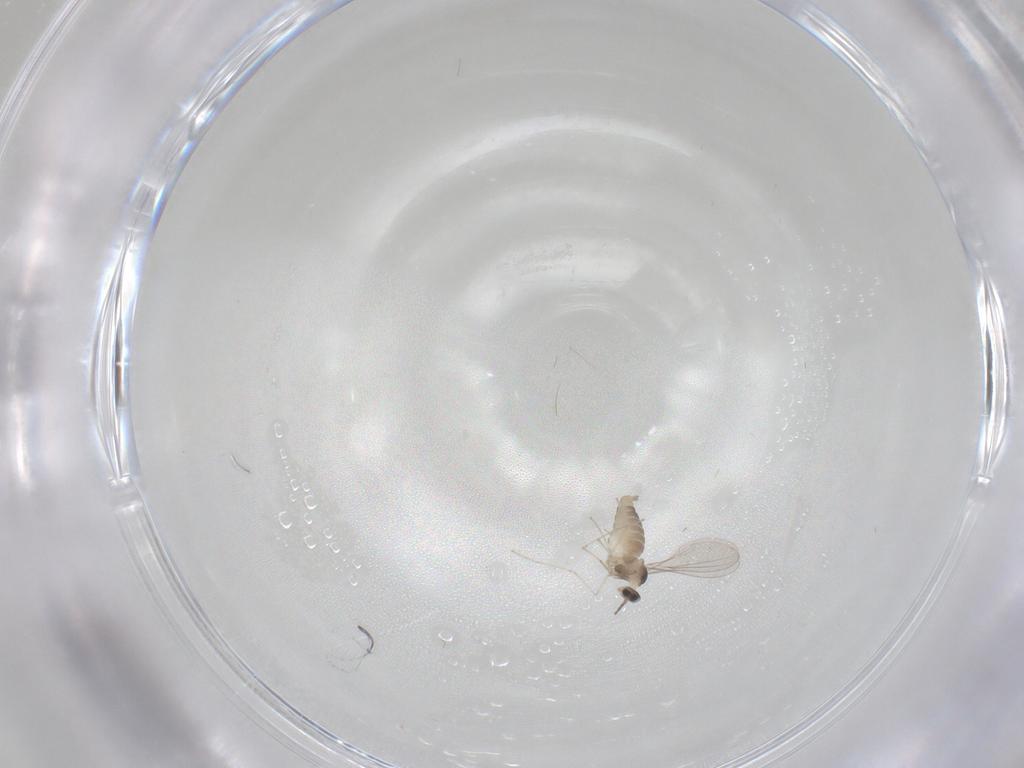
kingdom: Animalia
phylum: Arthropoda
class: Insecta
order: Diptera
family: Cecidomyiidae
